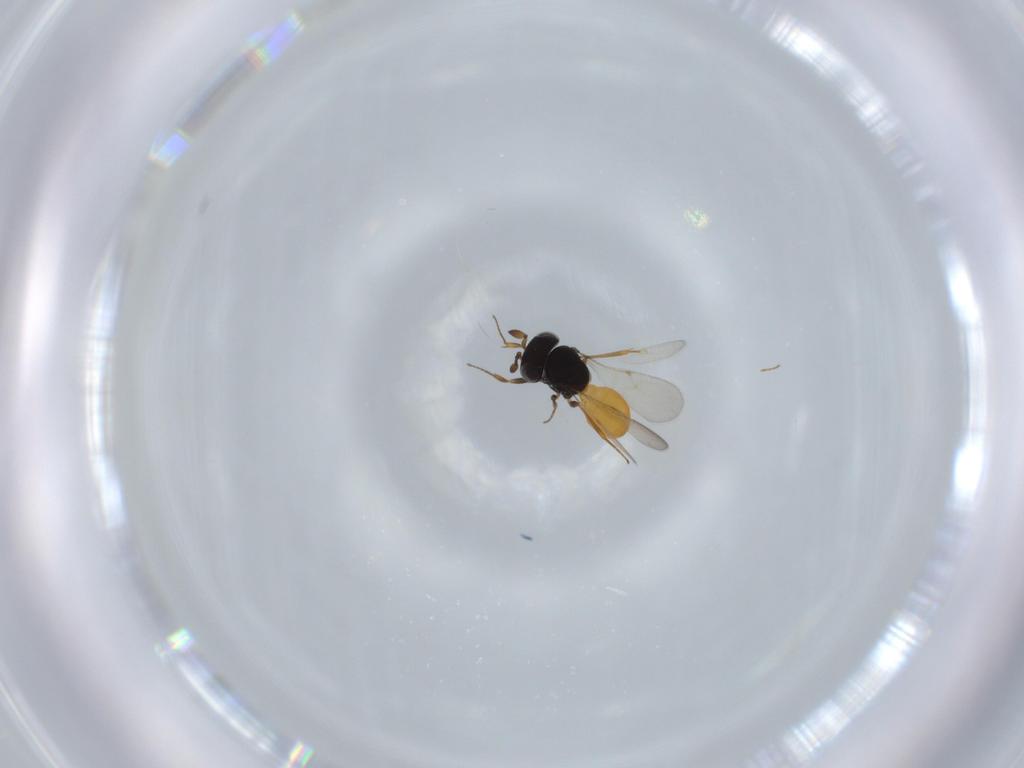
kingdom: Animalia
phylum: Arthropoda
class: Insecta
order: Hymenoptera
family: Scelionidae
